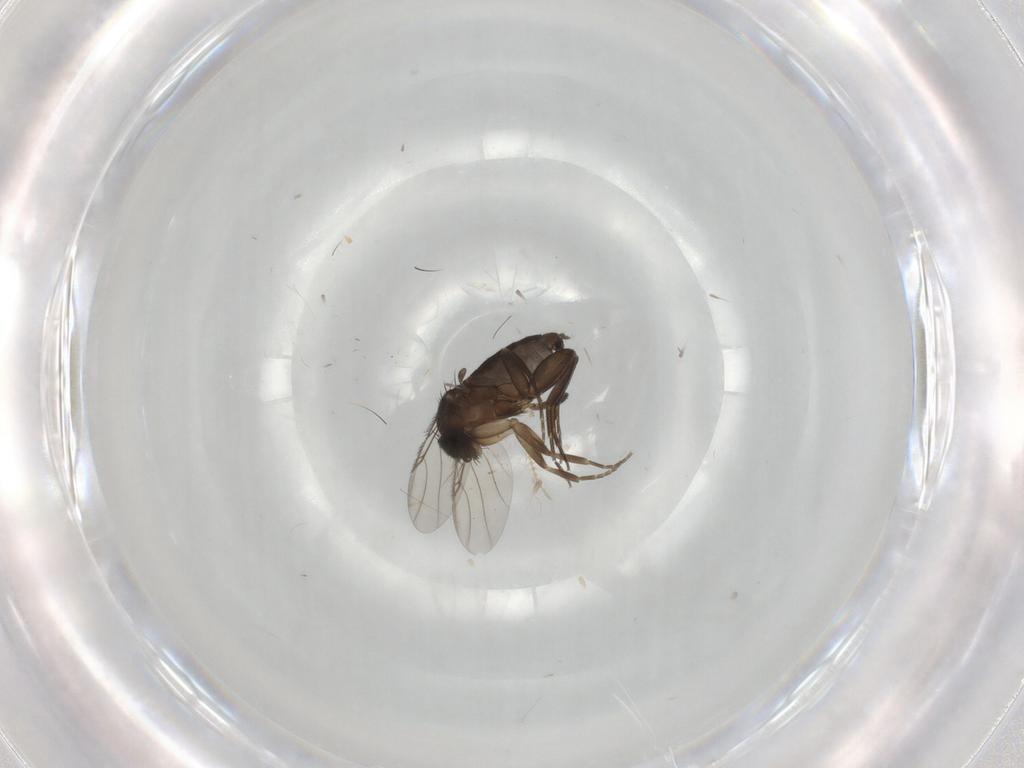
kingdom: Animalia
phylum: Arthropoda
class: Insecta
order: Diptera
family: Phoridae
